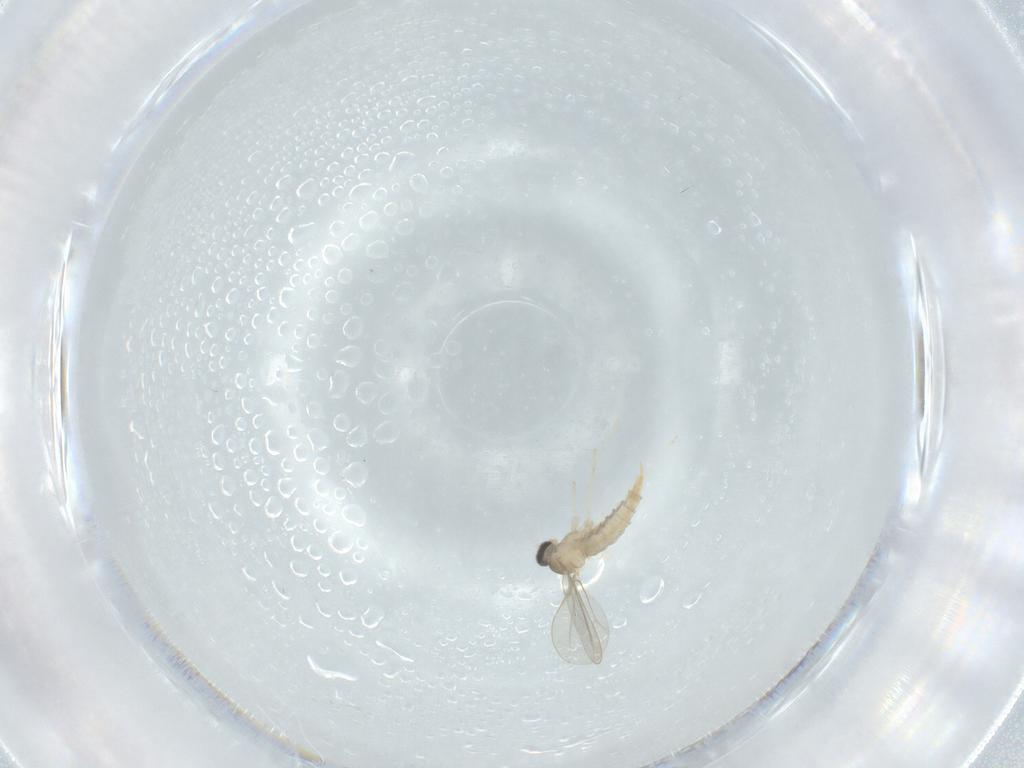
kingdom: Animalia
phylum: Arthropoda
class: Insecta
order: Diptera
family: Cecidomyiidae
